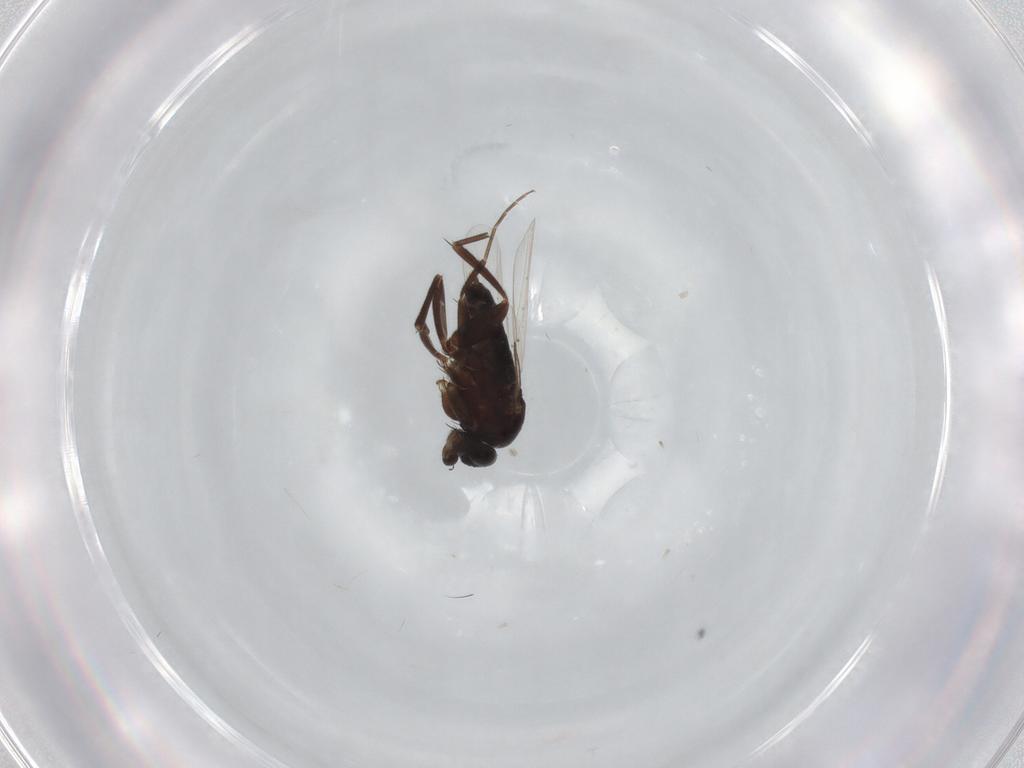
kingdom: Animalia
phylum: Arthropoda
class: Insecta
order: Diptera
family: Phoridae
